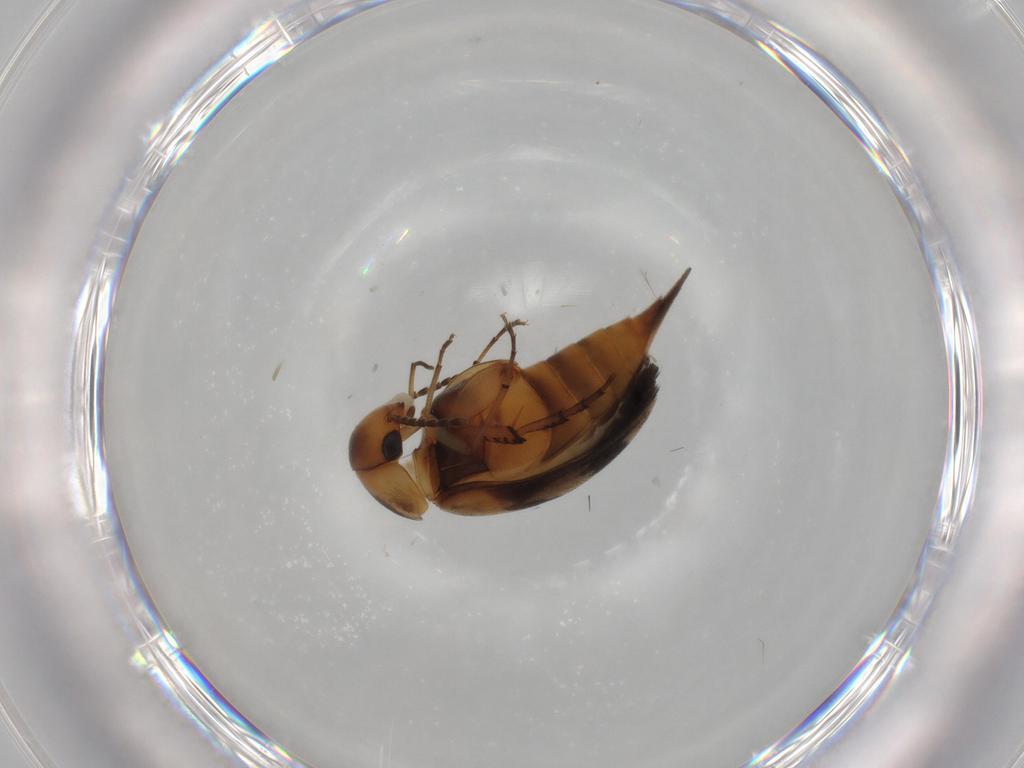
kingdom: Animalia
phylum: Arthropoda
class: Insecta
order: Coleoptera
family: Mordellidae
